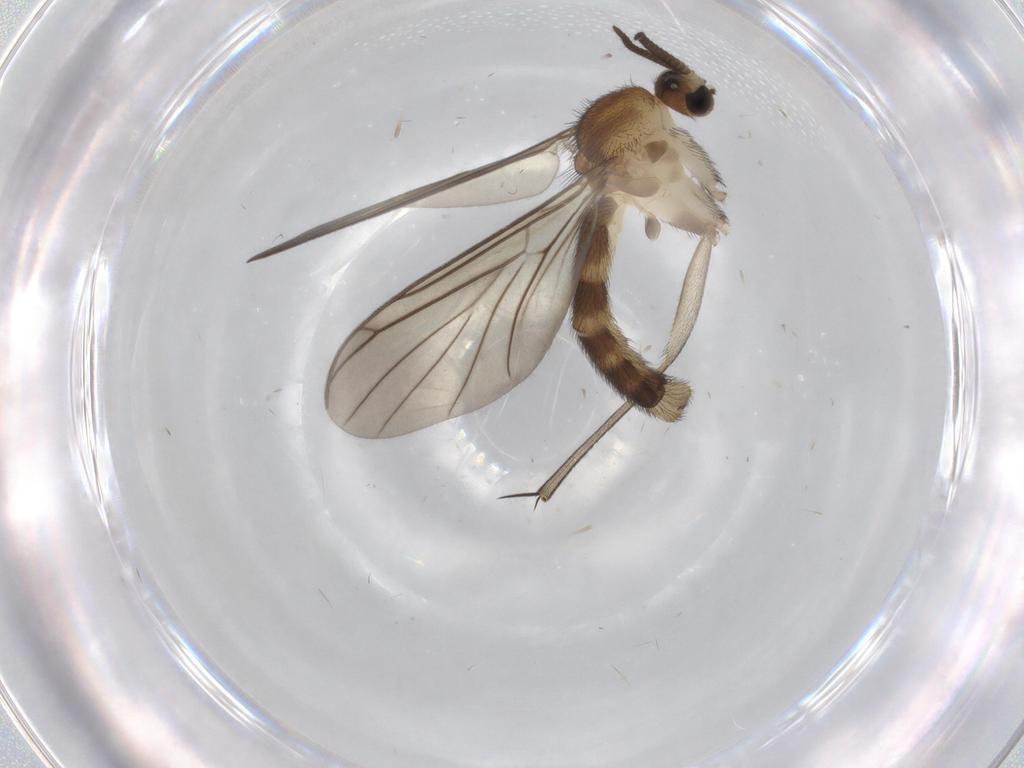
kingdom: Animalia
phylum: Arthropoda
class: Insecta
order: Diptera
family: Mycetophilidae
